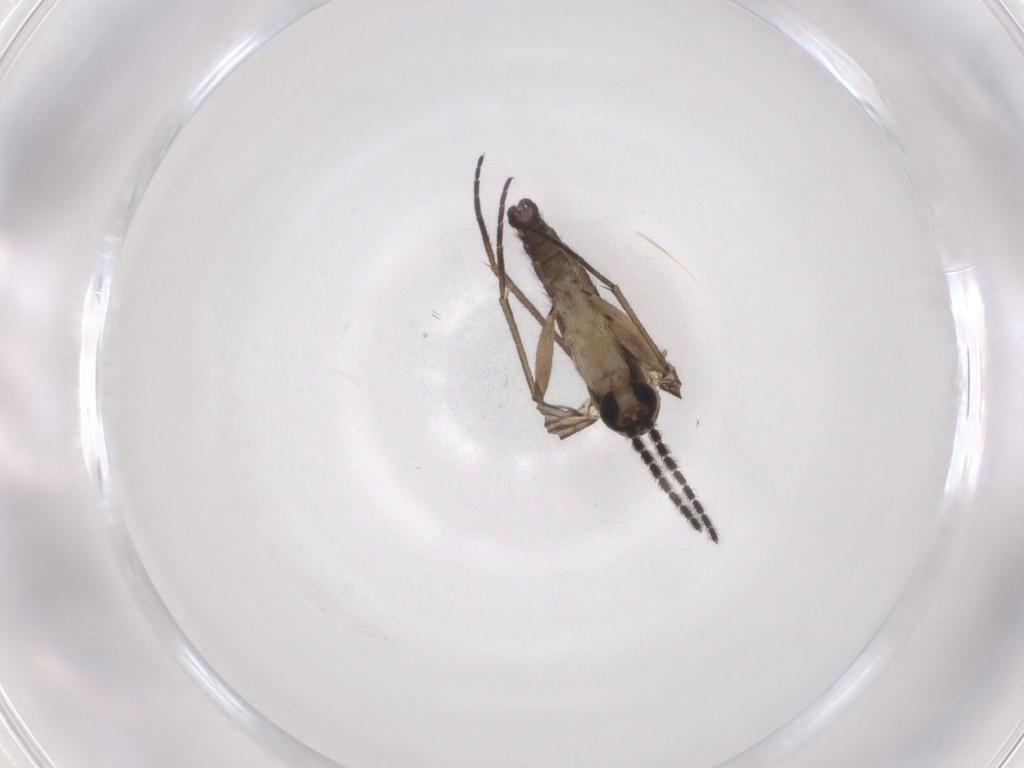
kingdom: Animalia
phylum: Arthropoda
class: Insecta
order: Diptera
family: Sciaridae
